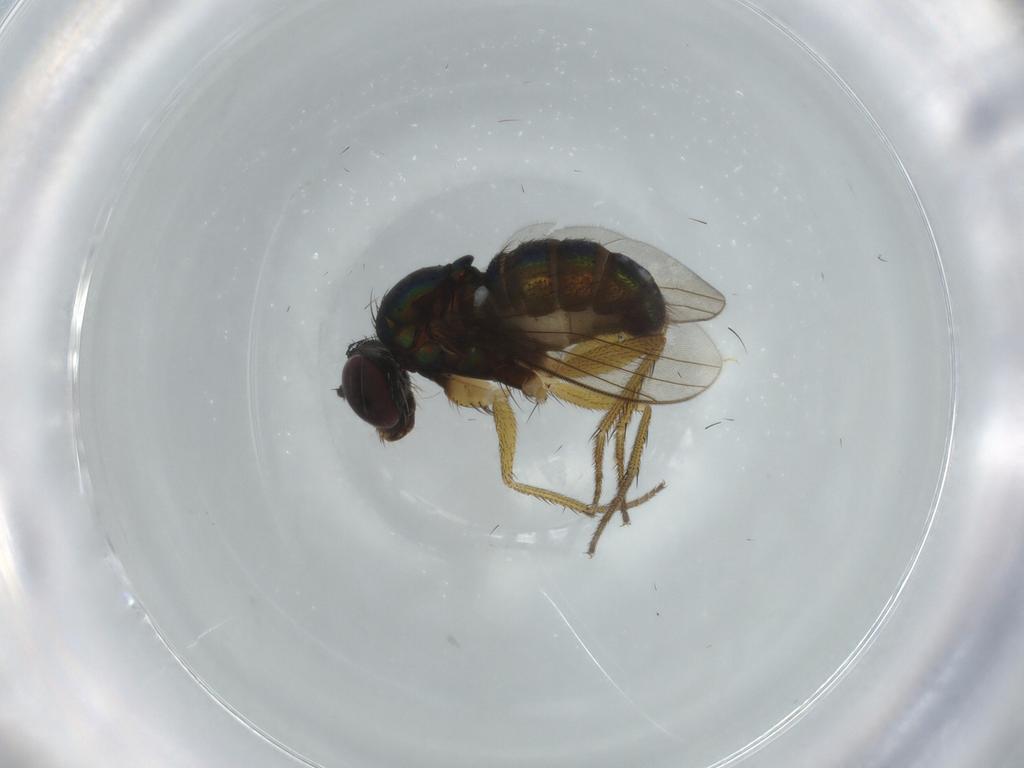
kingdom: Animalia
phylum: Arthropoda
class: Insecta
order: Diptera
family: Dolichopodidae
